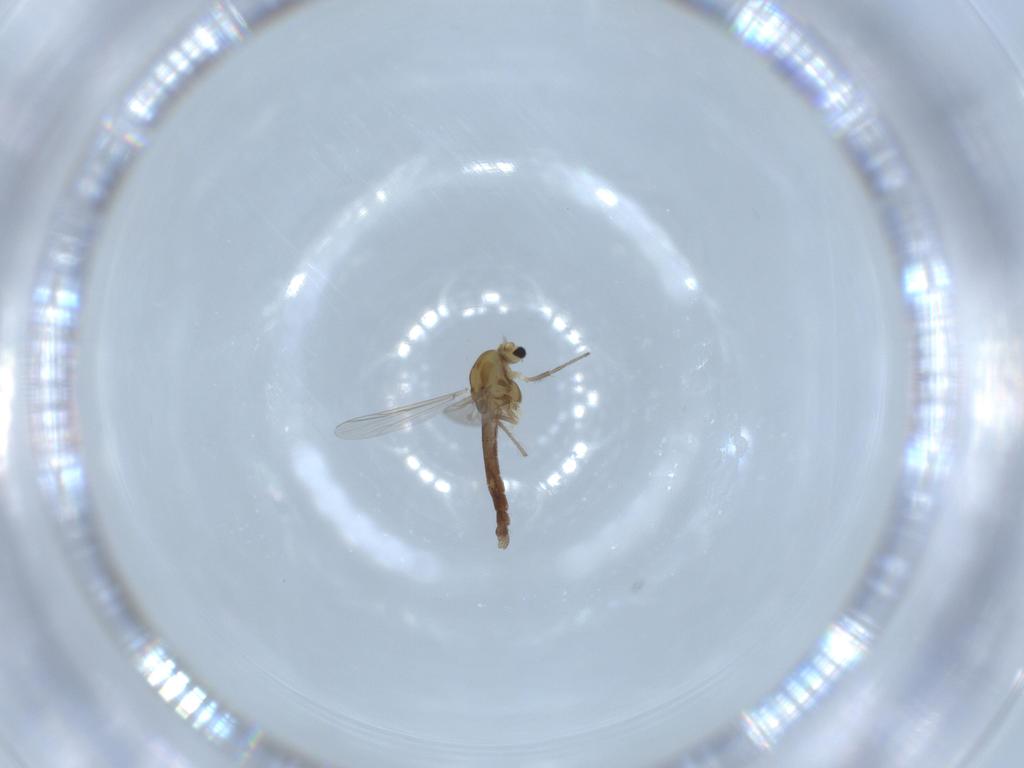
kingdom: Animalia
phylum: Arthropoda
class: Insecta
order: Diptera
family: Chironomidae
